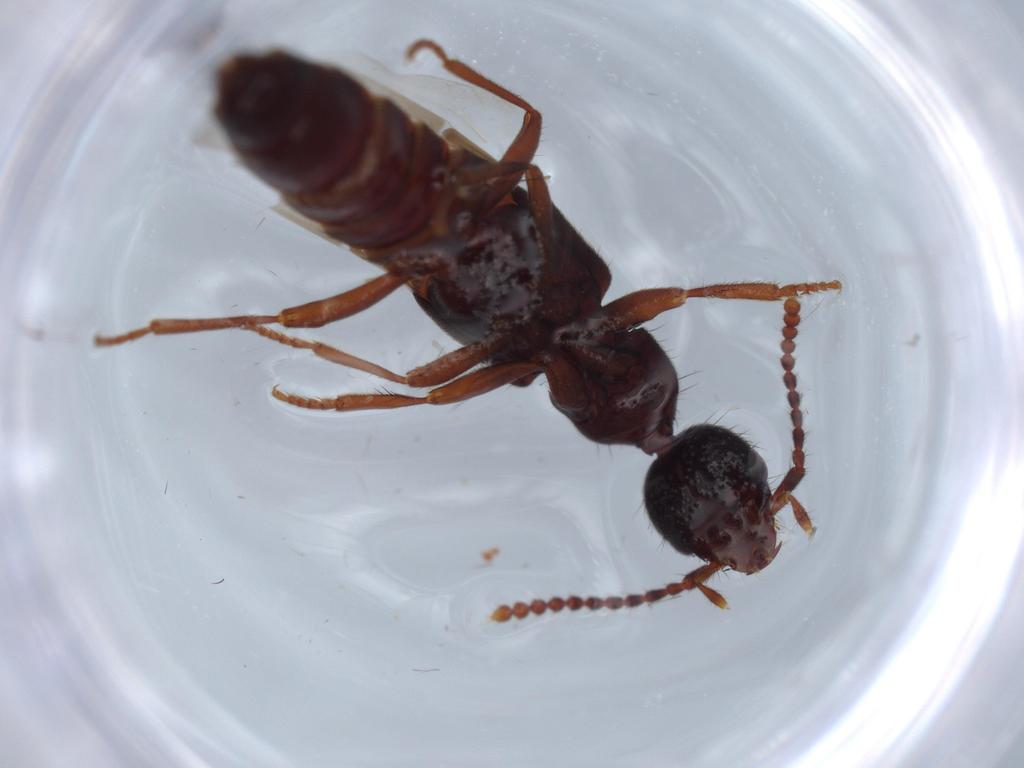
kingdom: Animalia
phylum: Arthropoda
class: Insecta
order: Coleoptera
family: Staphylinidae
